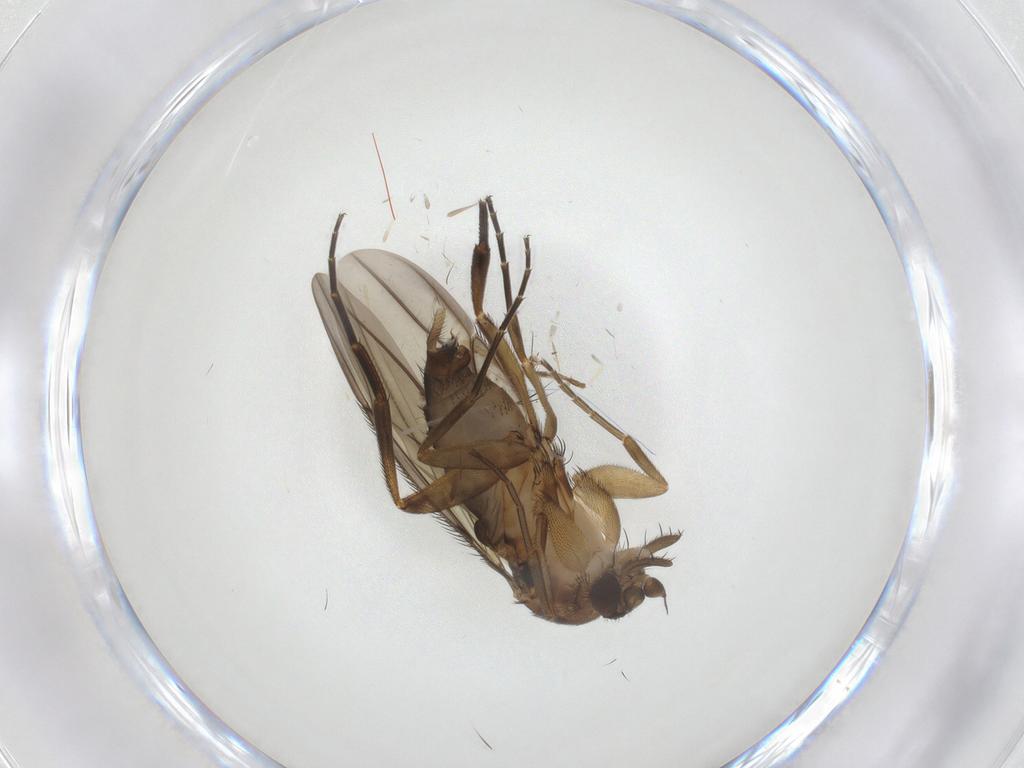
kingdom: Animalia
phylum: Arthropoda
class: Insecta
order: Diptera
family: Phoridae
